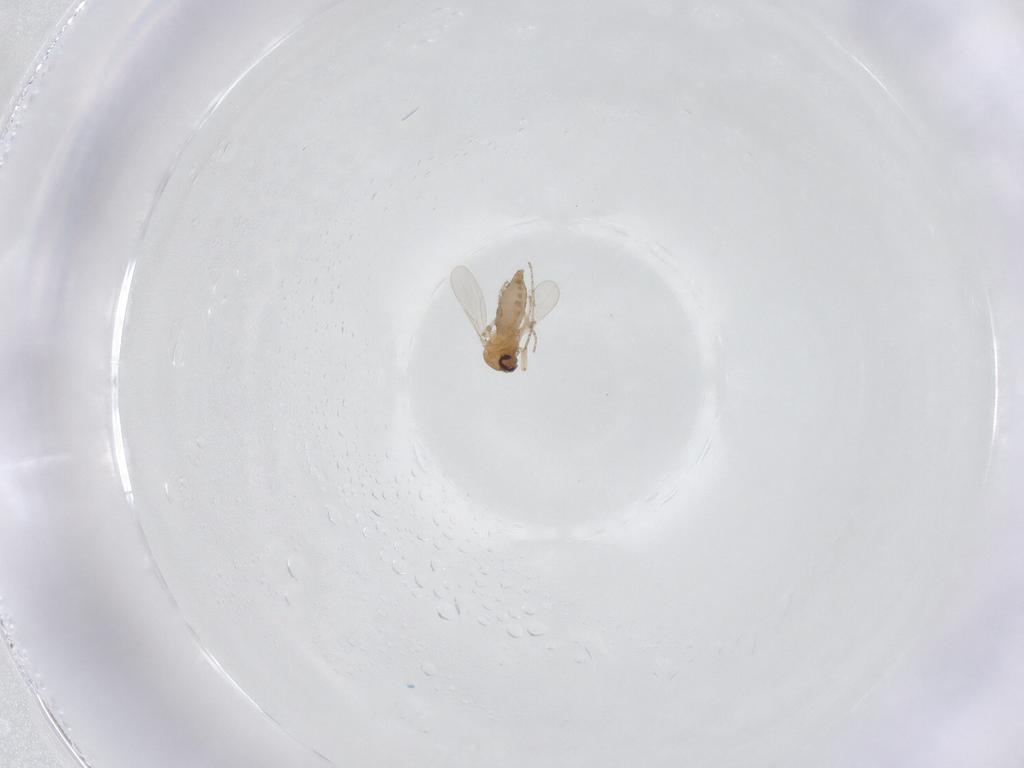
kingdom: Animalia
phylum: Arthropoda
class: Insecta
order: Diptera
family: Ceratopogonidae
